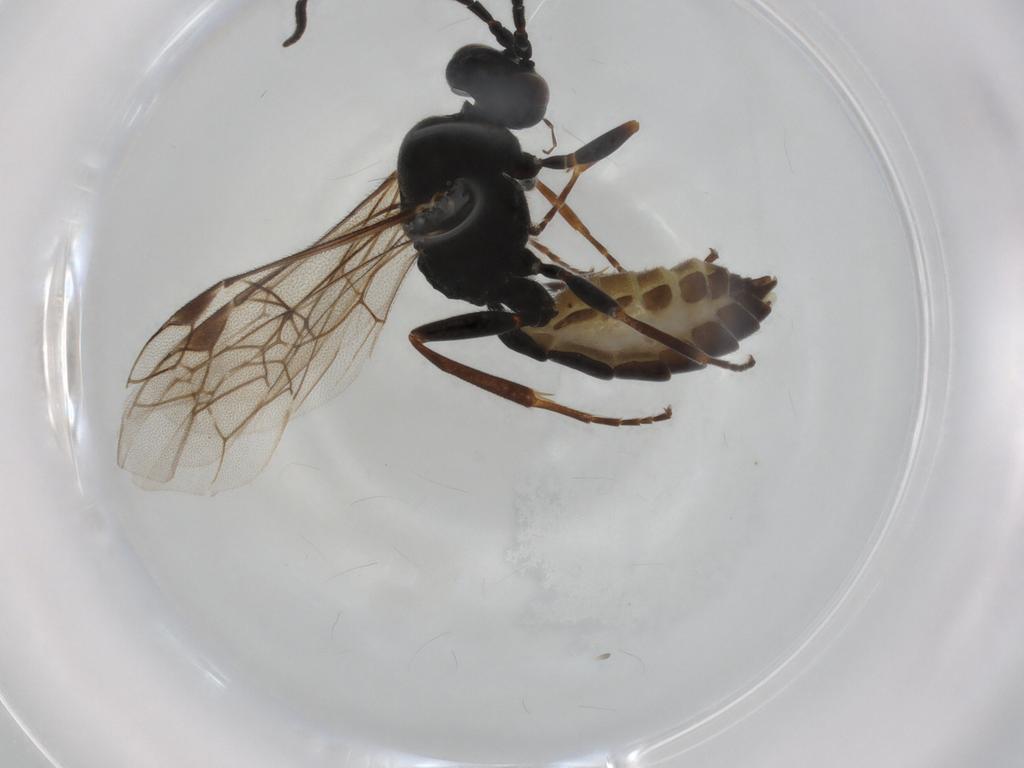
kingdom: Animalia
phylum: Arthropoda
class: Insecta
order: Hymenoptera
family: Ichneumonidae
